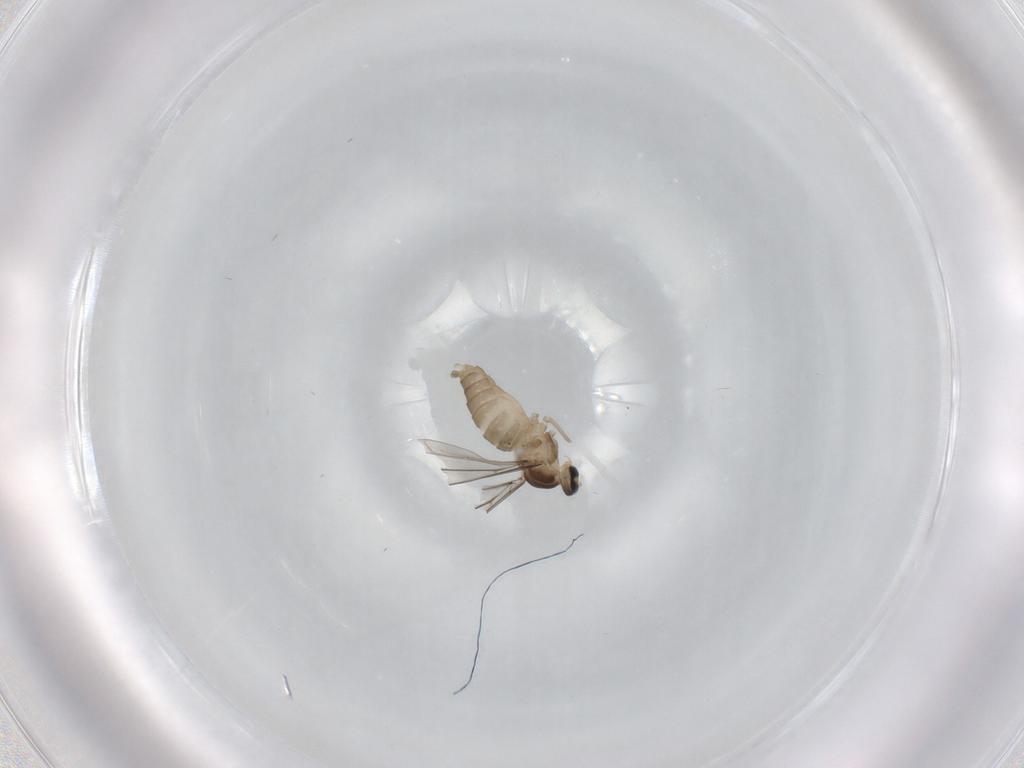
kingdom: Animalia
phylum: Arthropoda
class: Insecta
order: Diptera
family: Cecidomyiidae
